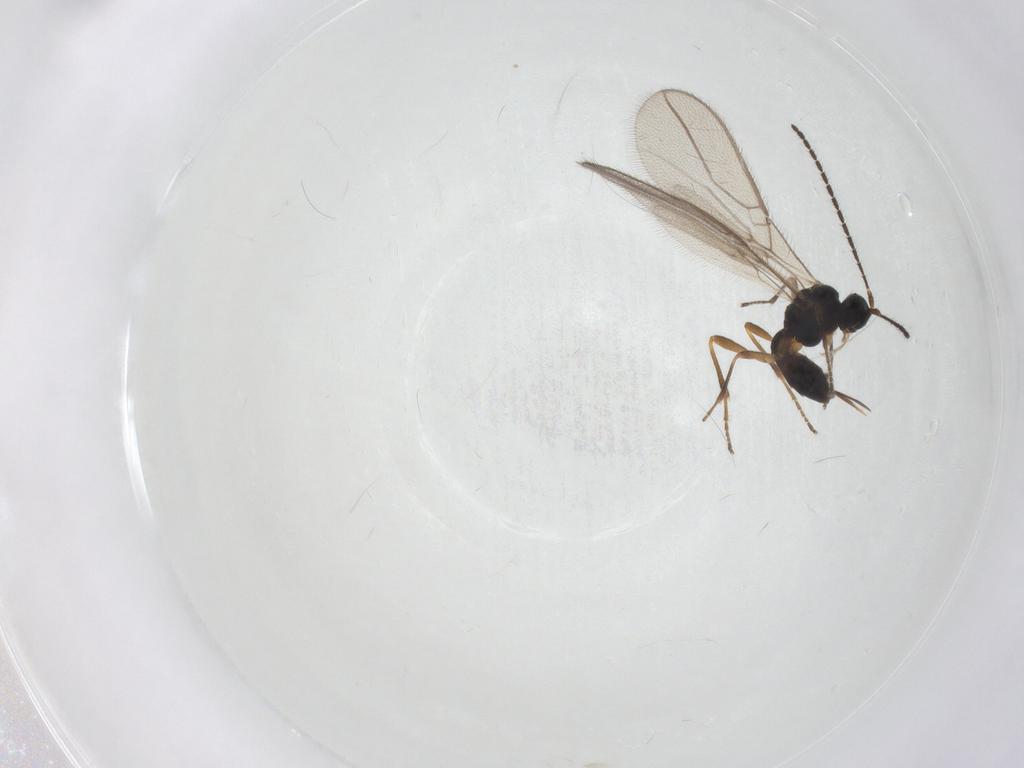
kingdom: Animalia
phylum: Arthropoda
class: Insecta
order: Hymenoptera
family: Braconidae
